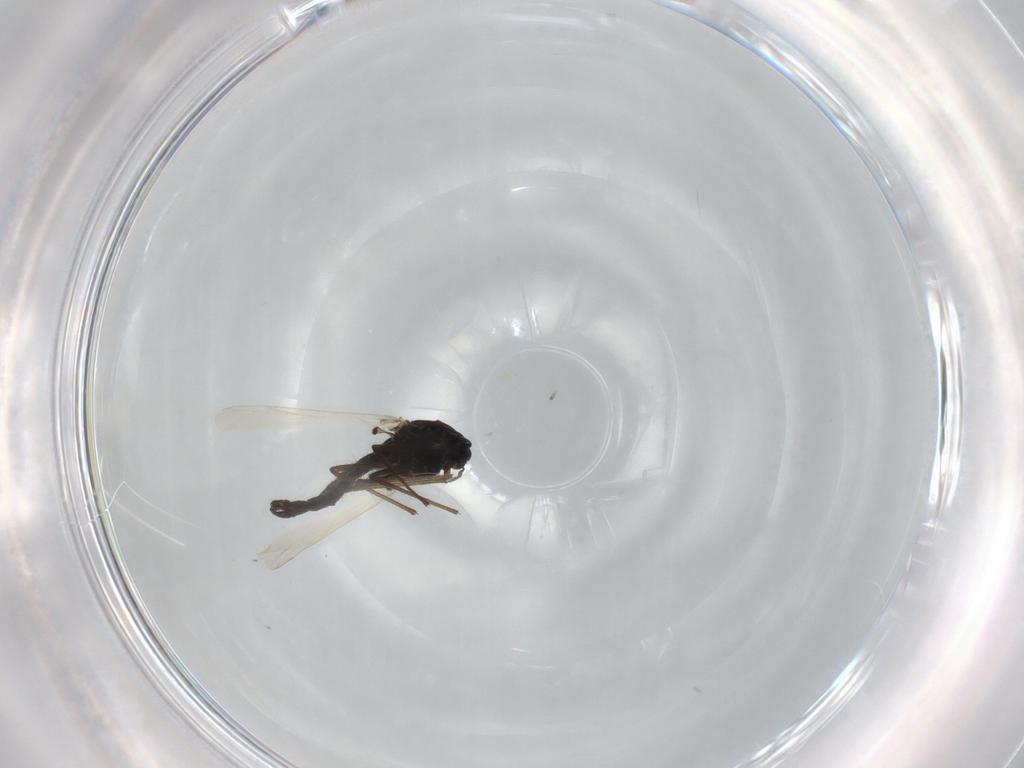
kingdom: Animalia
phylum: Arthropoda
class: Insecta
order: Diptera
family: Chironomidae
